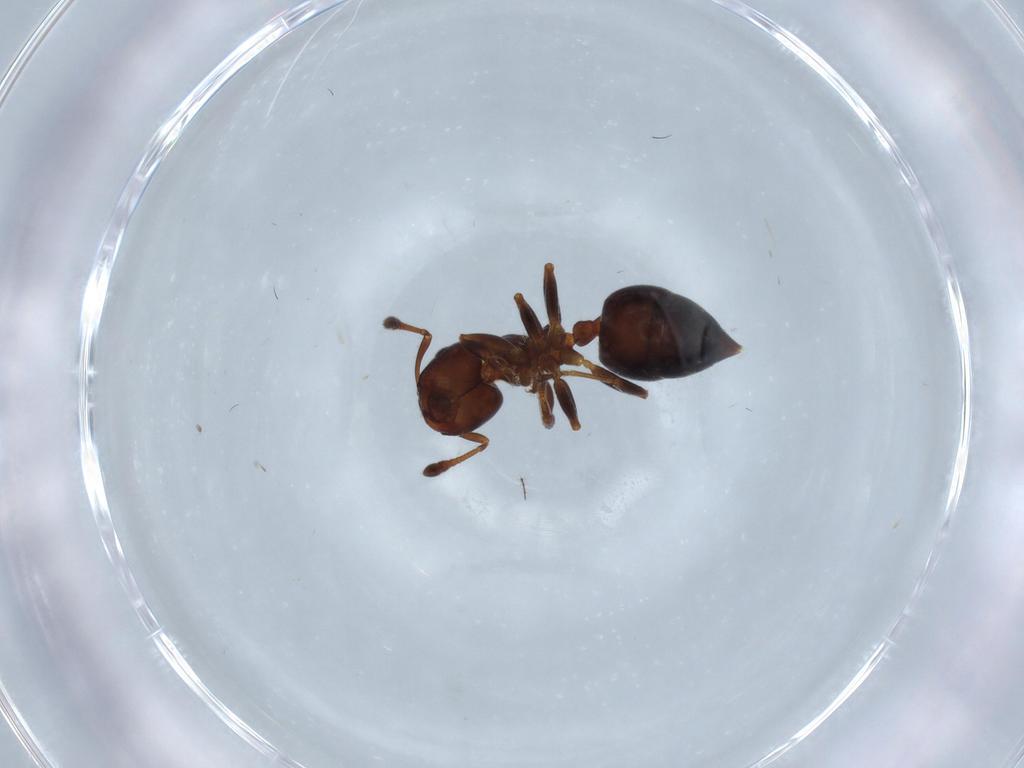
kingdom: Animalia
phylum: Arthropoda
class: Insecta
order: Hymenoptera
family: Formicidae
